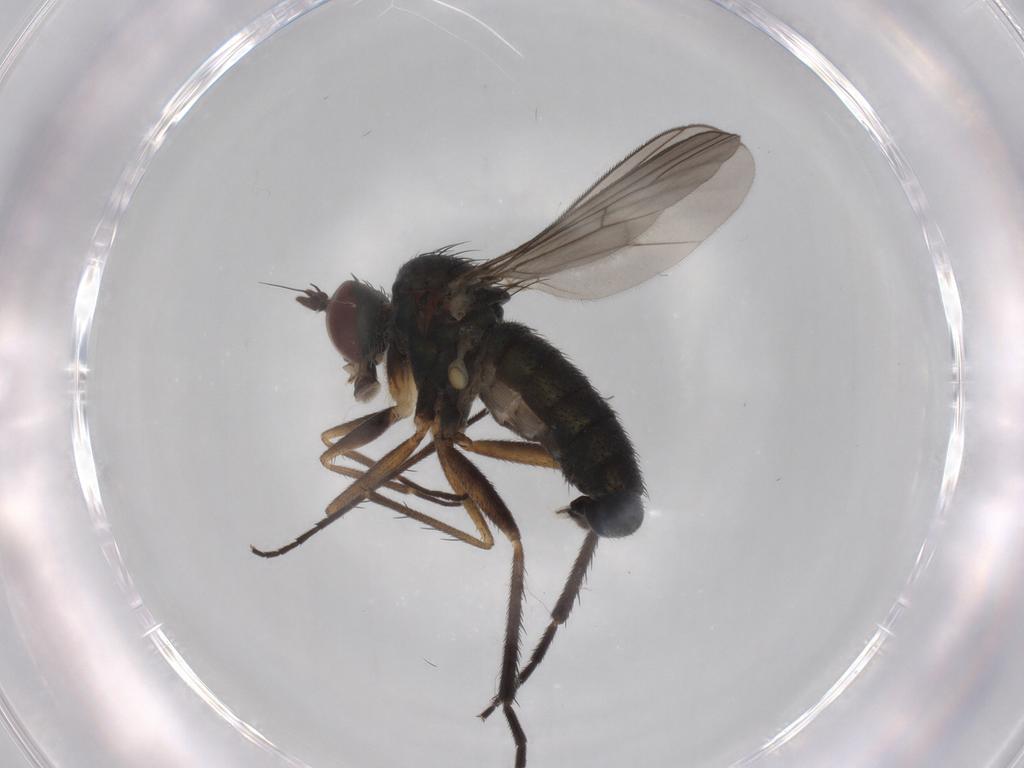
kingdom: Animalia
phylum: Arthropoda
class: Insecta
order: Diptera
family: Dolichopodidae
